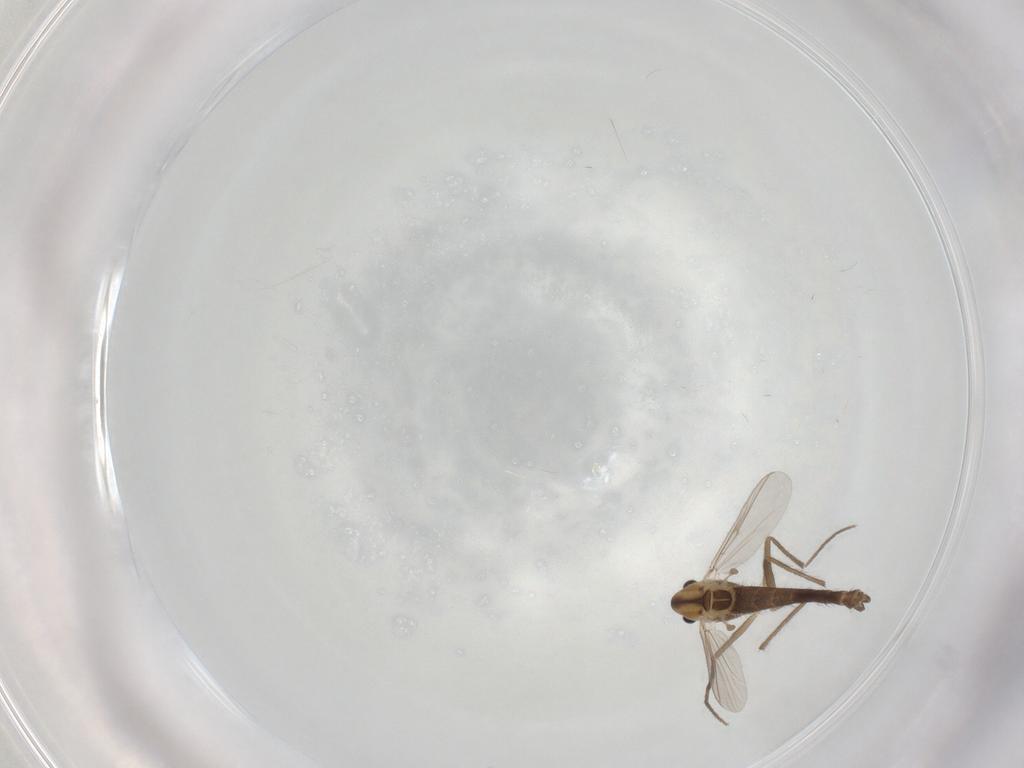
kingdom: Animalia
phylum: Arthropoda
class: Insecta
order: Diptera
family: Chironomidae
